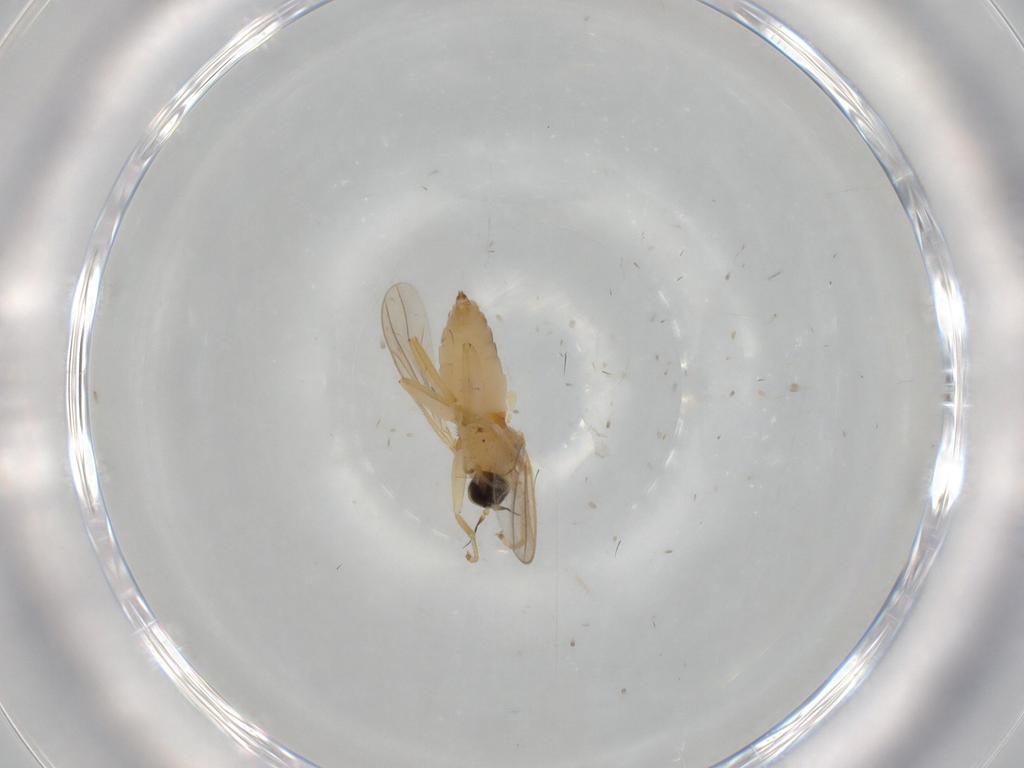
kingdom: Animalia
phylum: Arthropoda
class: Insecta
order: Diptera
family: Hybotidae
